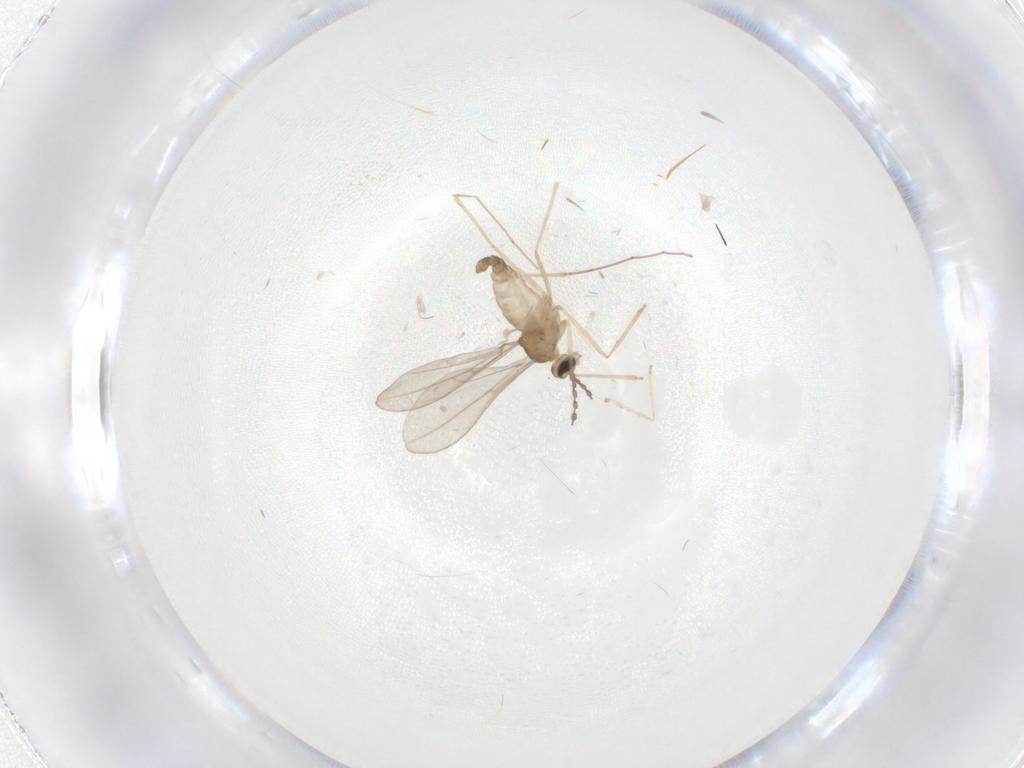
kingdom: Animalia
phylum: Arthropoda
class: Insecta
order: Diptera
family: Cecidomyiidae
